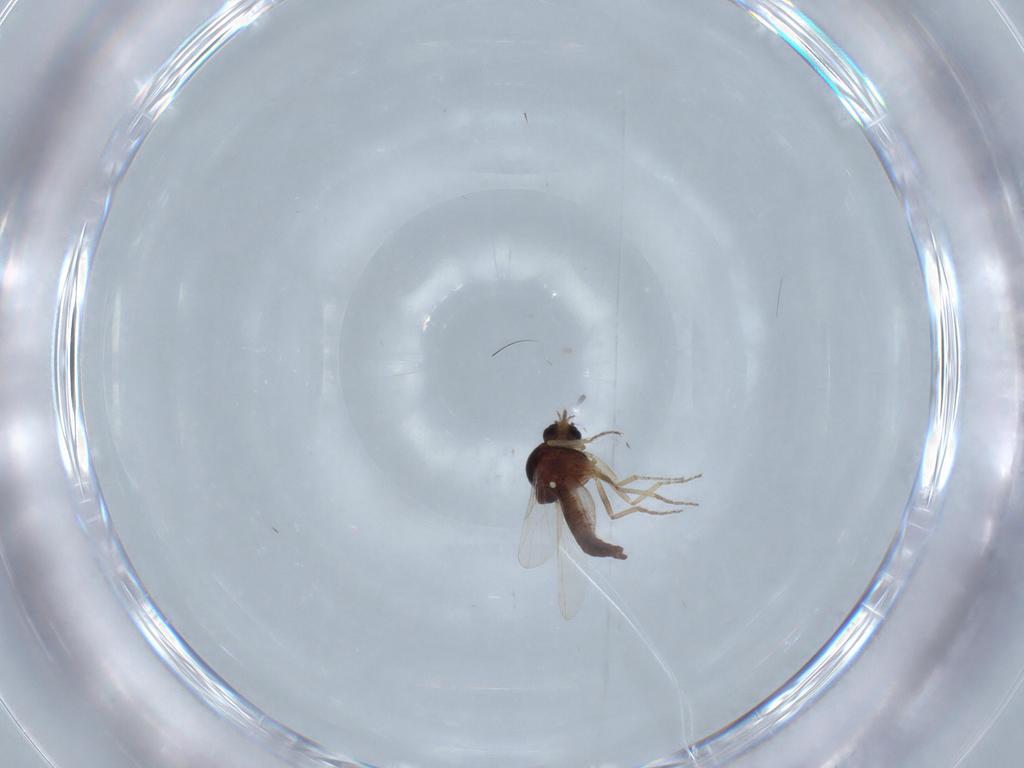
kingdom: Animalia
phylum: Arthropoda
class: Insecta
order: Diptera
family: Ceratopogonidae
